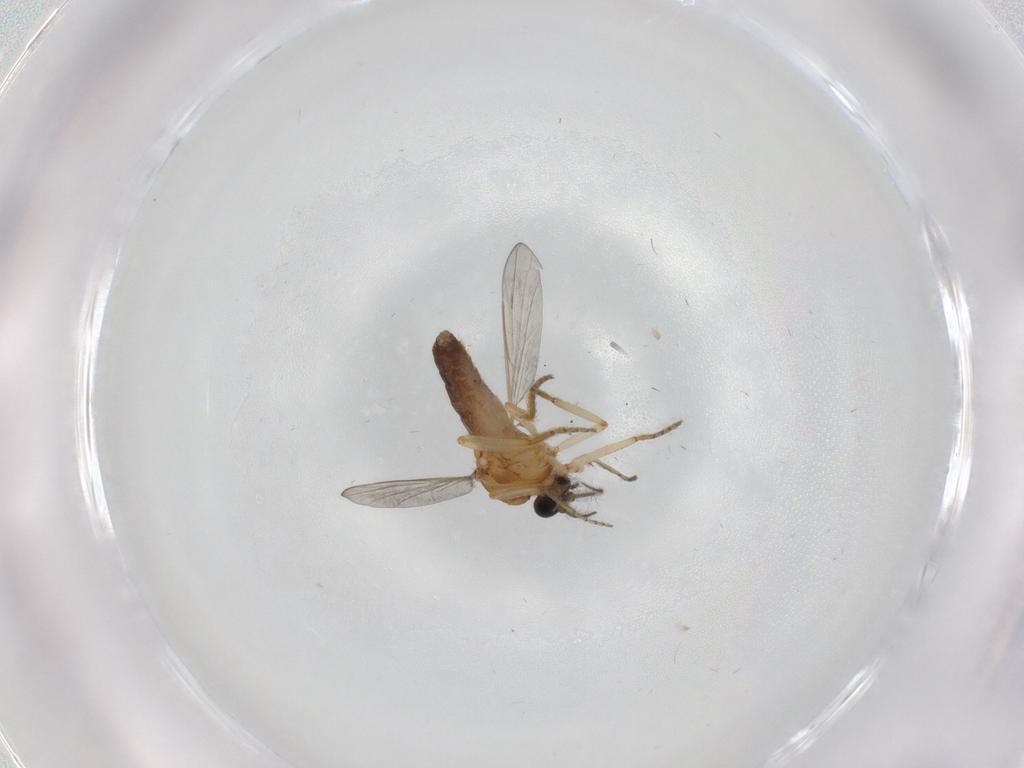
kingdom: Animalia
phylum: Arthropoda
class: Insecta
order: Diptera
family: Ceratopogonidae
